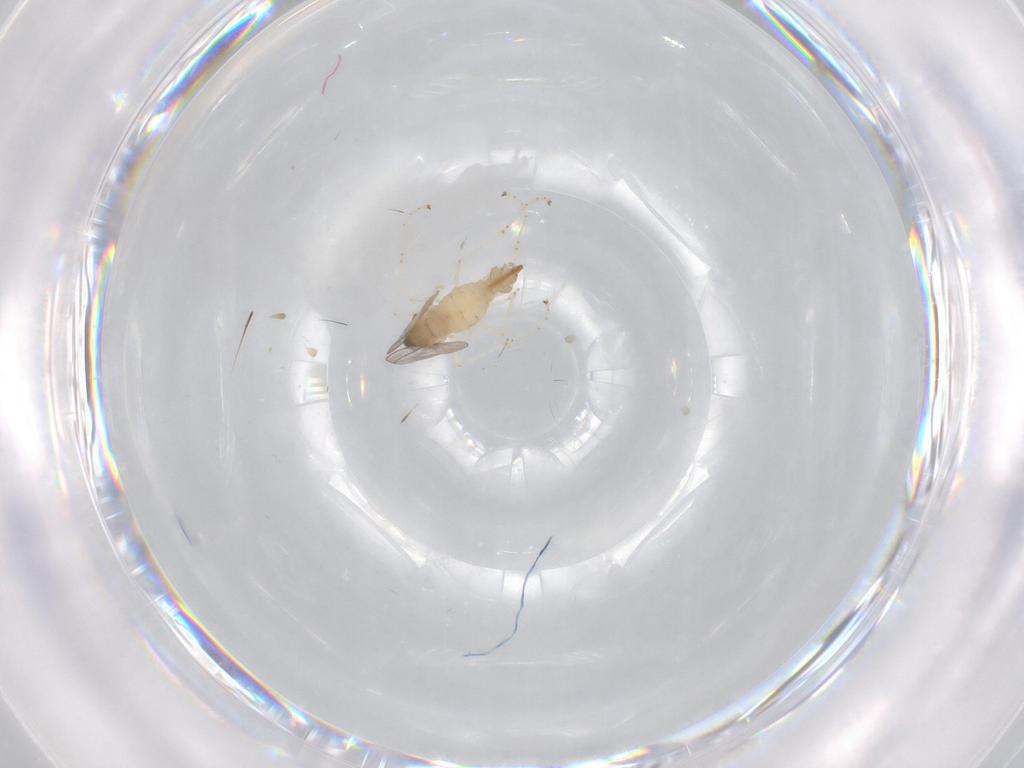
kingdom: Animalia
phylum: Arthropoda
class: Insecta
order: Diptera
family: Cecidomyiidae
